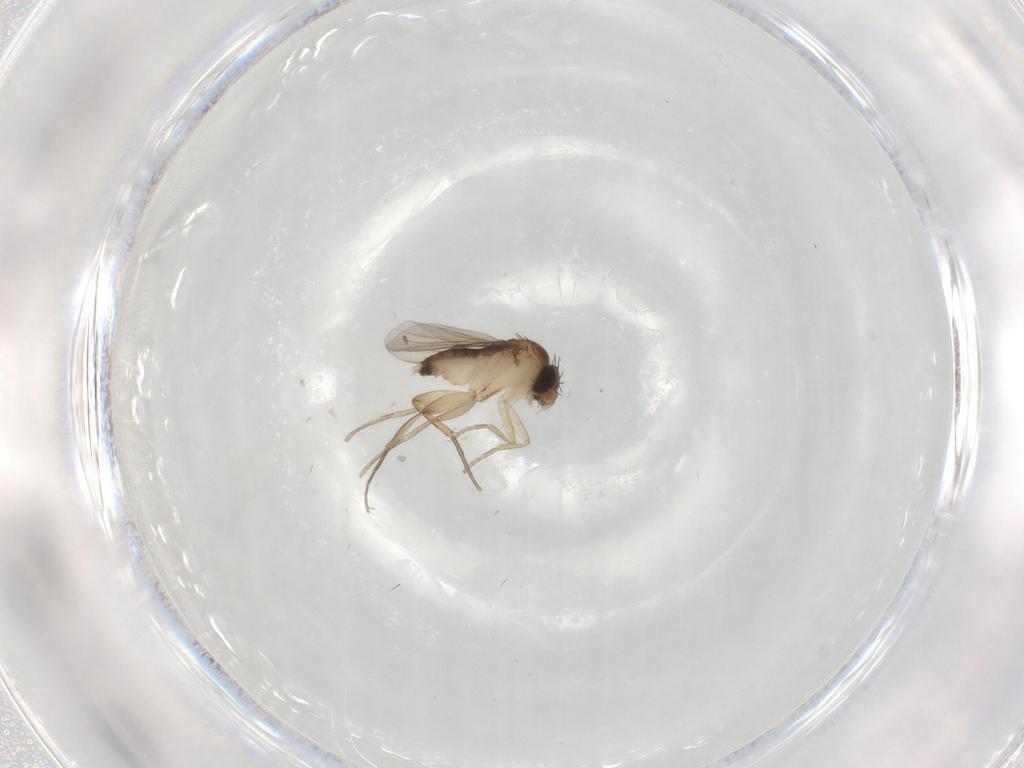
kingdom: Animalia
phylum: Arthropoda
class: Insecta
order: Diptera
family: Phoridae
